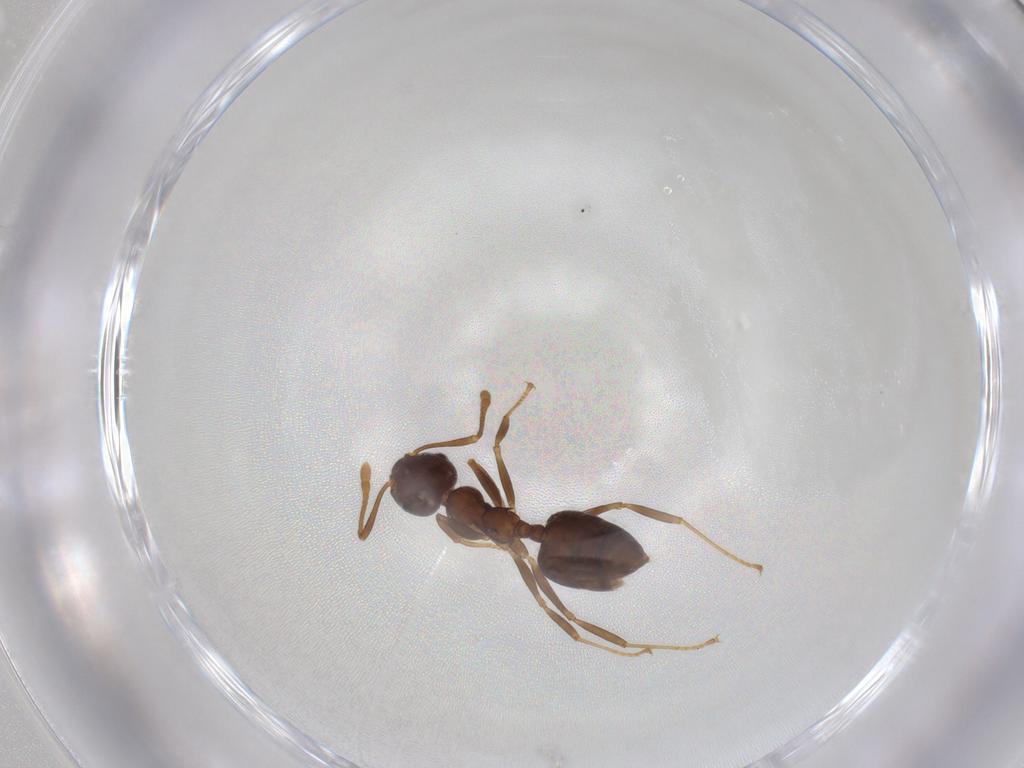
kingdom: Animalia
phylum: Arthropoda
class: Insecta
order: Hymenoptera
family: Formicidae
